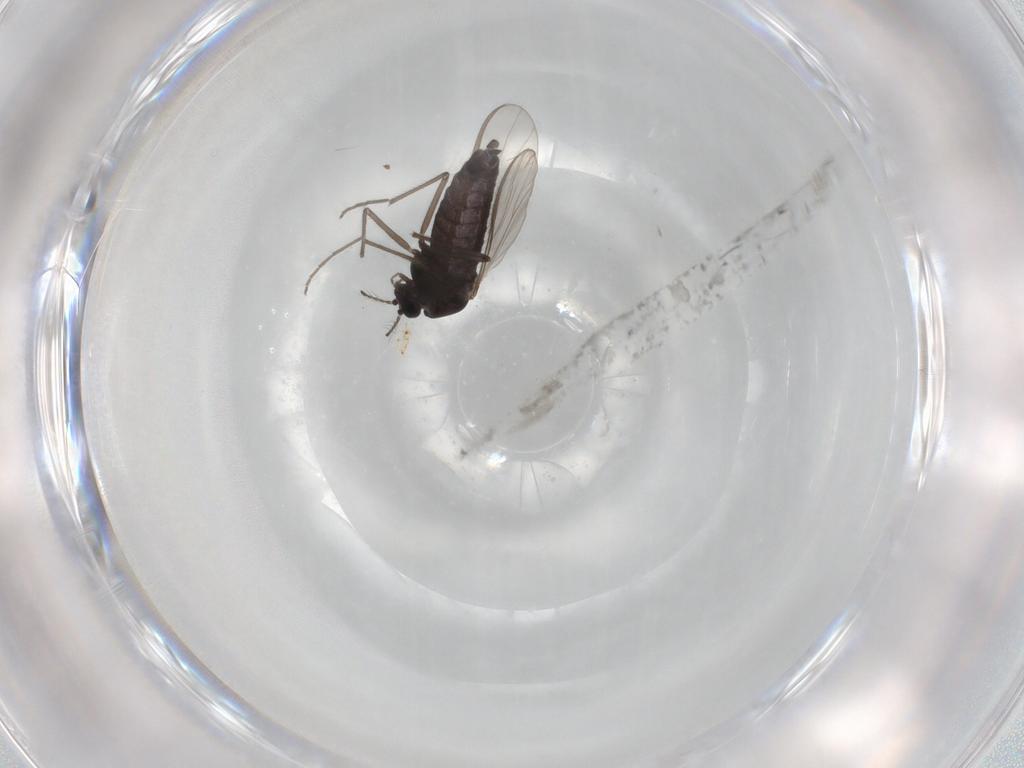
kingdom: Animalia
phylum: Arthropoda
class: Insecta
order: Diptera
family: Chironomidae
